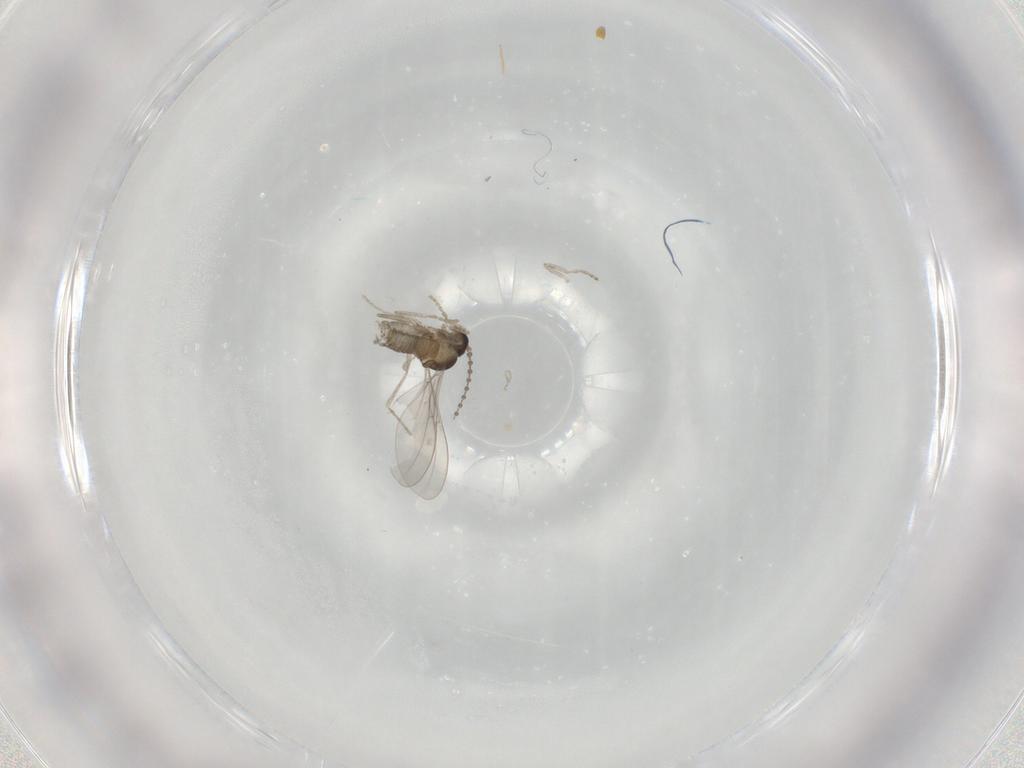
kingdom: Animalia
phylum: Arthropoda
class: Insecta
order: Diptera
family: Cecidomyiidae
